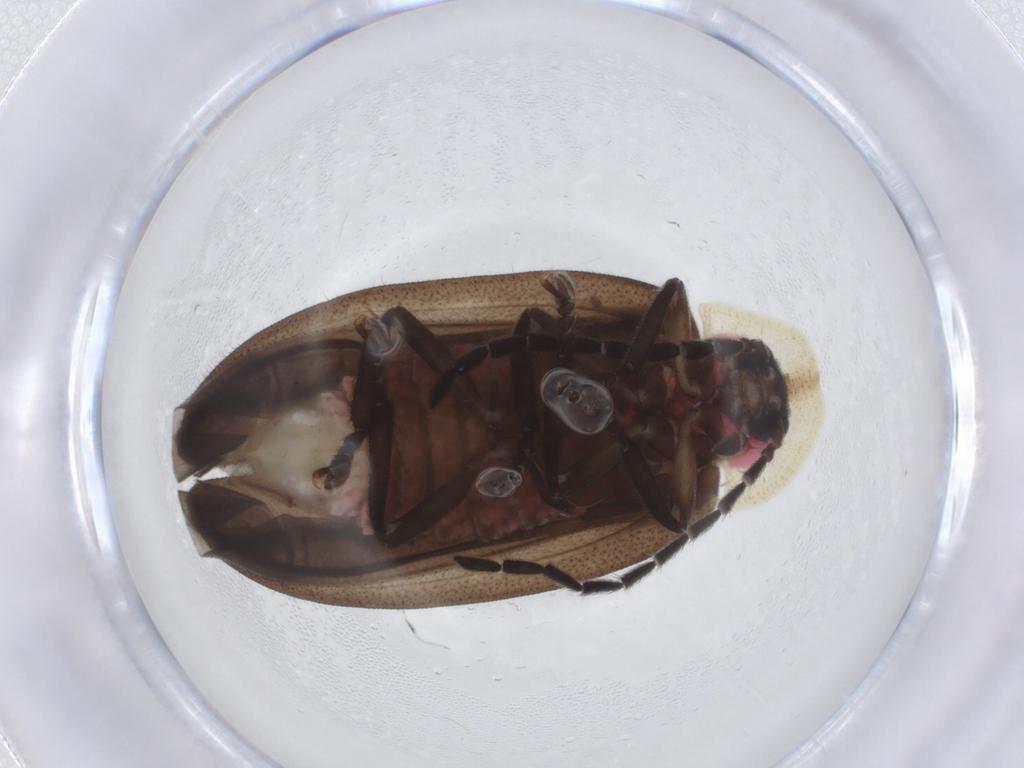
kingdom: Animalia
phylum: Arthropoda
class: Insecta
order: Coleoptera
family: Lampyridae
